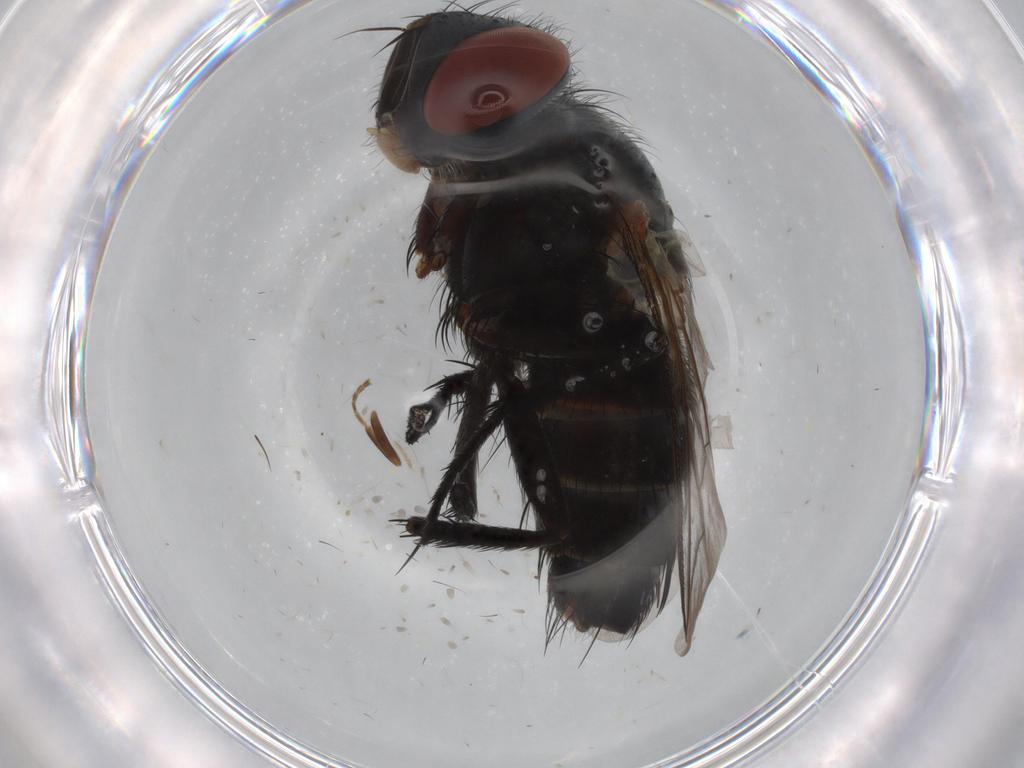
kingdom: Animalia
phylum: Arthropoda
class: Insecta
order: Diptera
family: Sarcophagidae
